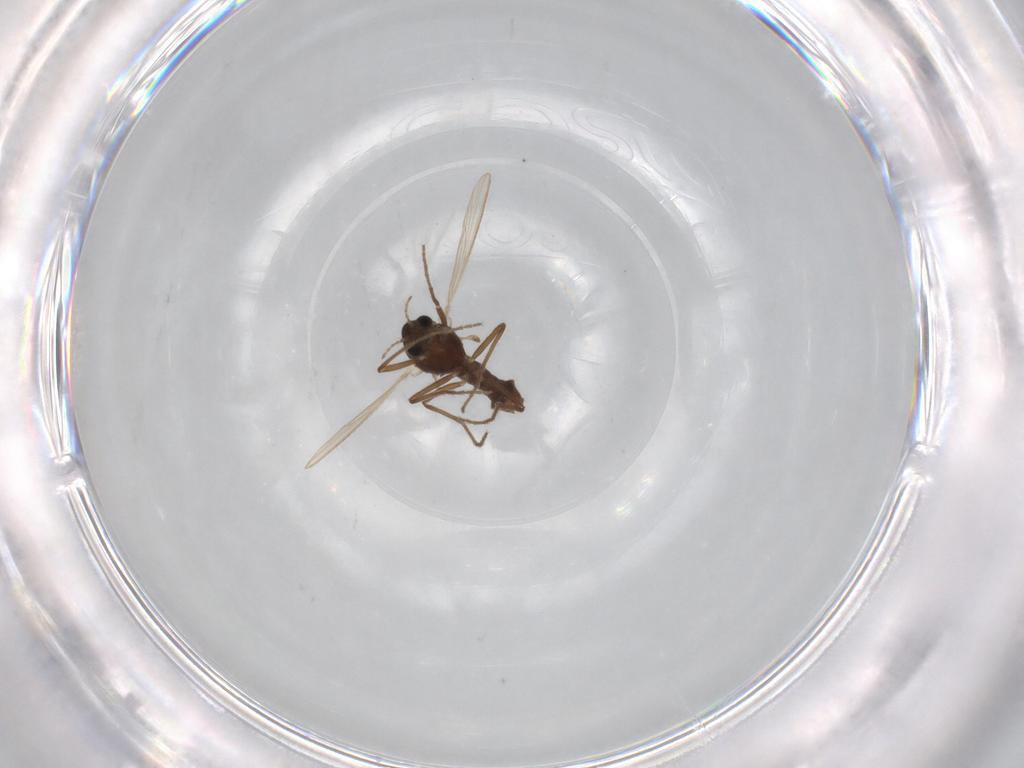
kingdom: Animalia
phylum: Arthropoda
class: Insecta
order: Diptera
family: Chironomidae
